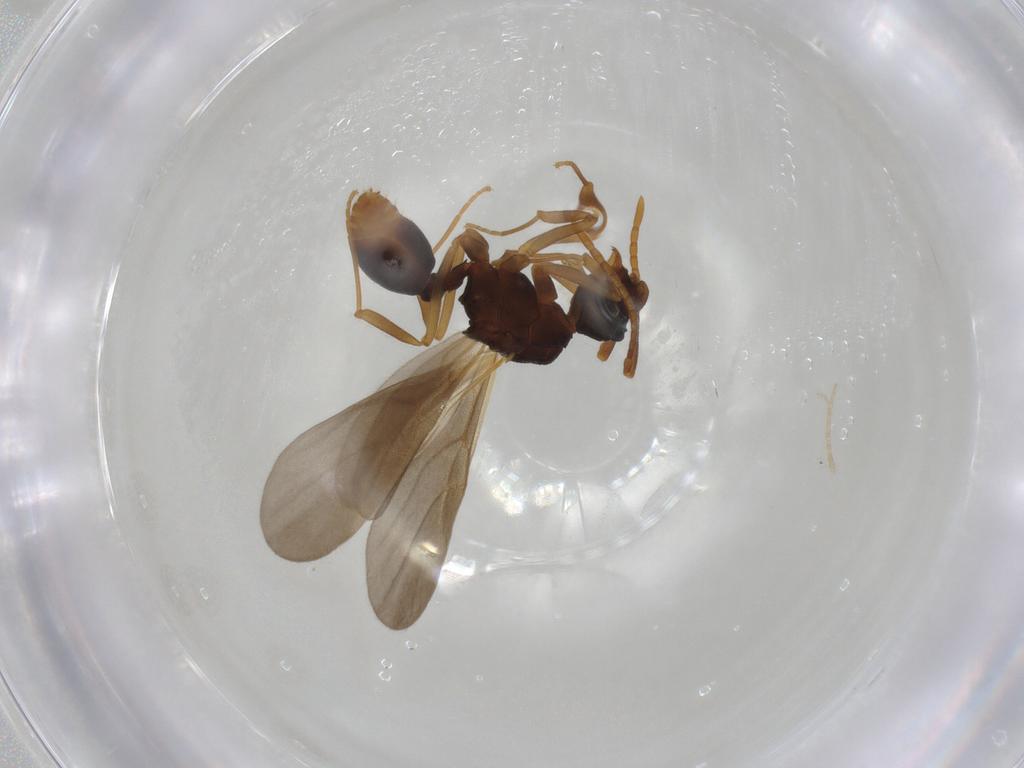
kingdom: Animalia
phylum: Arthropoda
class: Insecta
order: Hymenoptera
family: Formicidae
